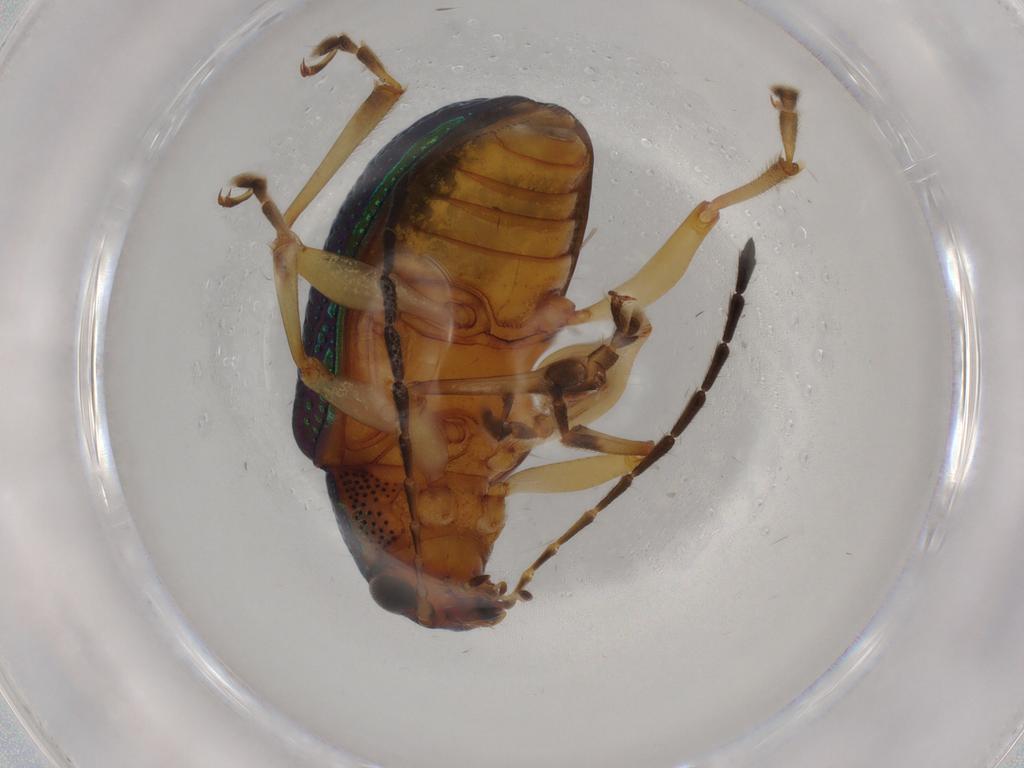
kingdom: Animalia
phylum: Arthropoda
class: Insecta
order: Coleoptera
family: Chrysomelidae
